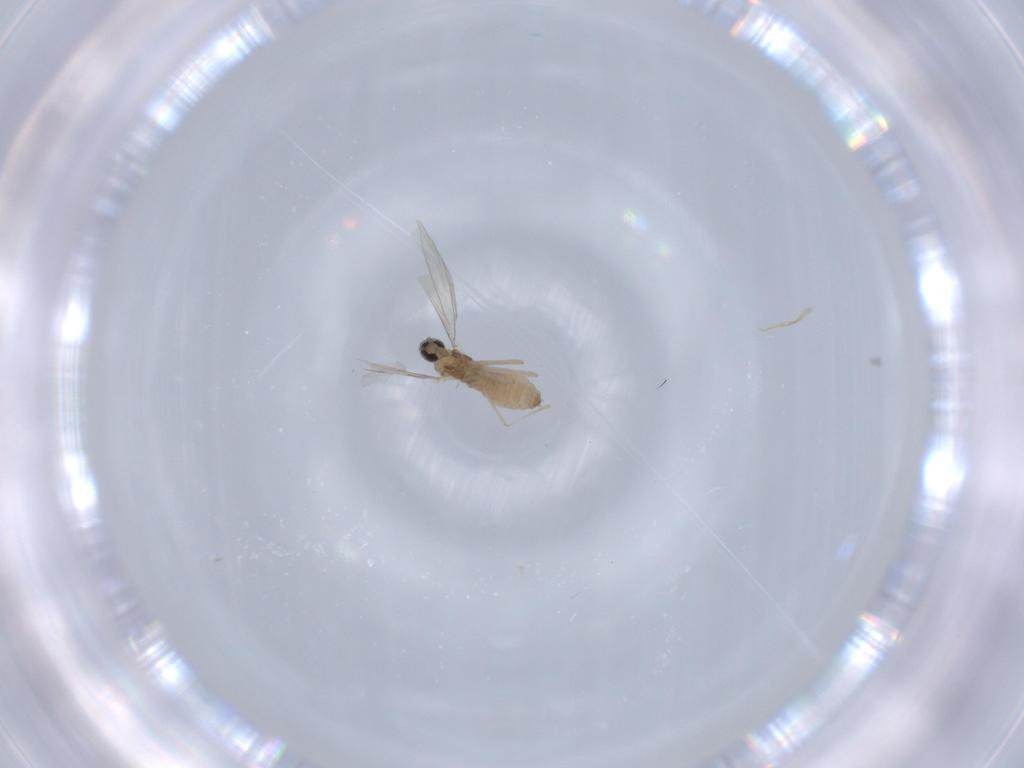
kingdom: Animalia
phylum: Arthropoda
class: Insecta
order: Diptera
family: Cecidomyiidae
